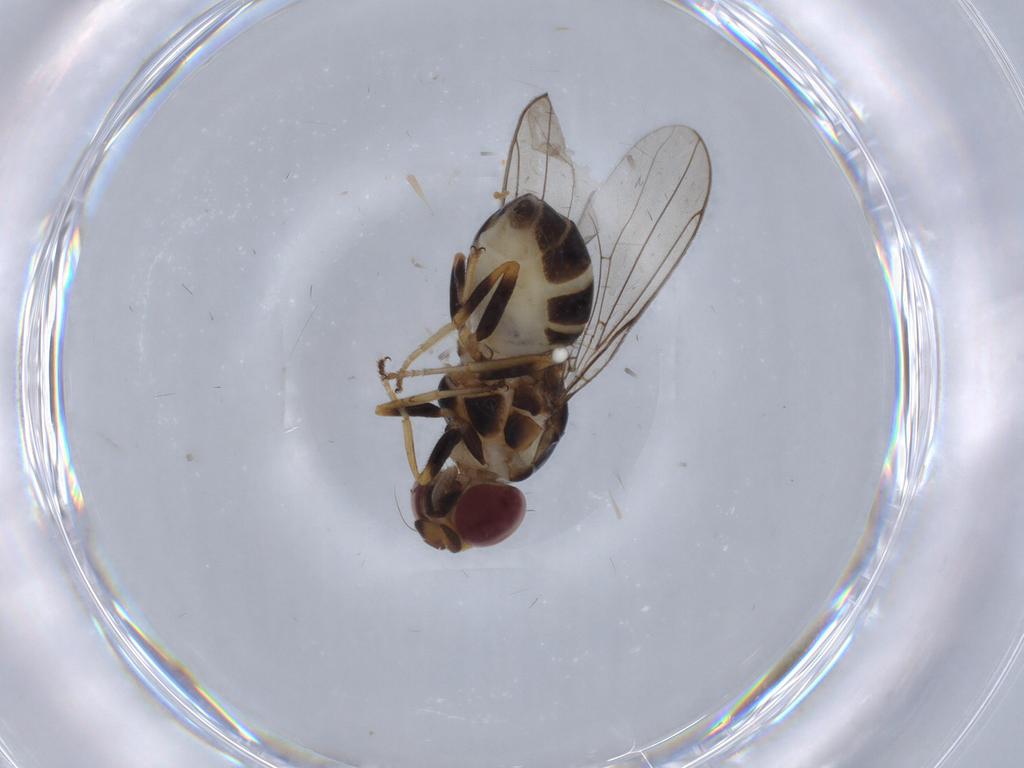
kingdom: Animalia
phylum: Arthropoda
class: Insecta
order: Diptera
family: Chloropidae
